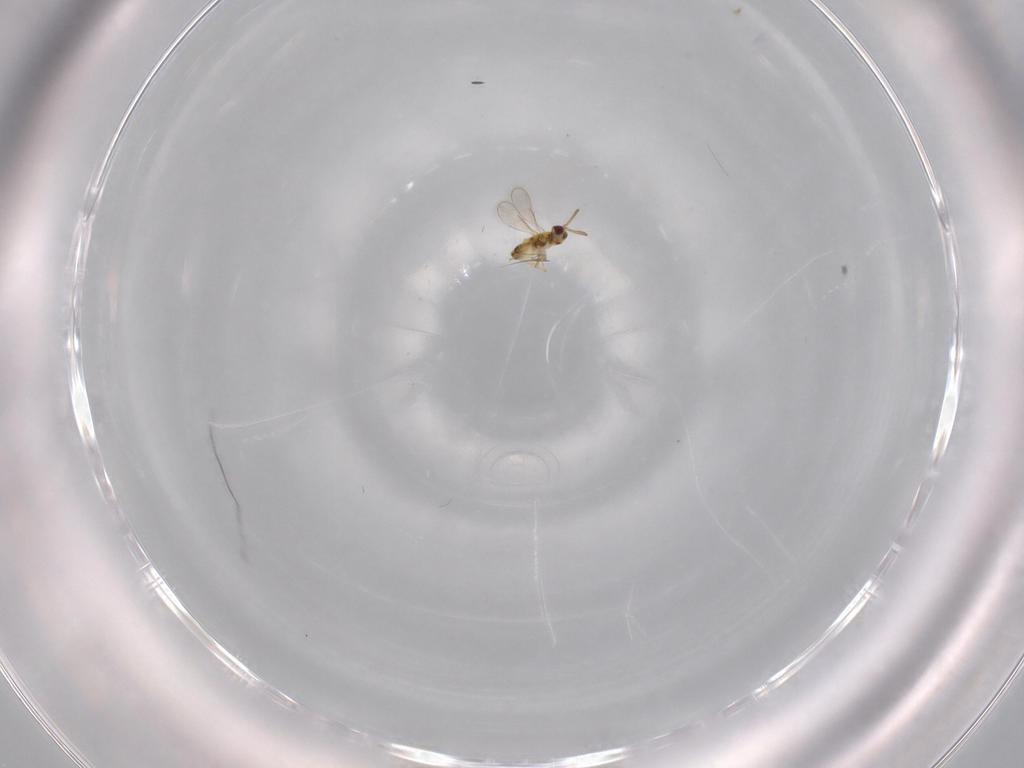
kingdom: Animalia
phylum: Arthropoda
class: Insecta
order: Hymenoptera
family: Aphelinidae
